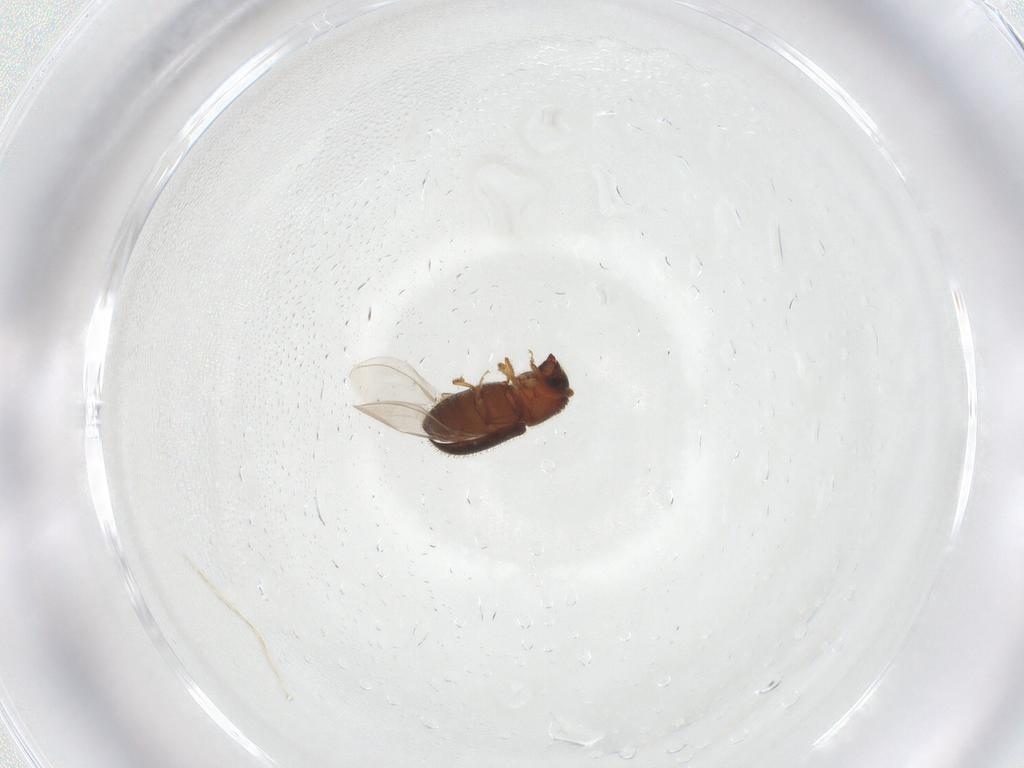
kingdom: Animalia
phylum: Arthropoda
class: Insecta
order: Coleoptera
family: Curculionidae
